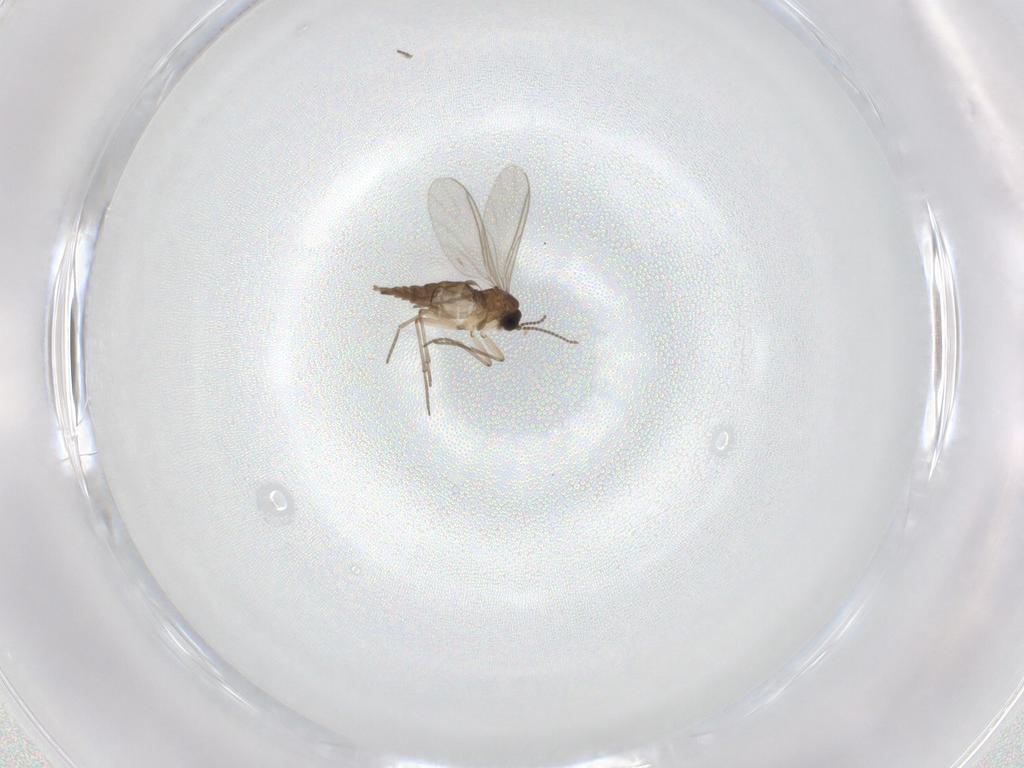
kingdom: Animalia
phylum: Arthropoda
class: Insecta
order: Diptera
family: Sciaridae
